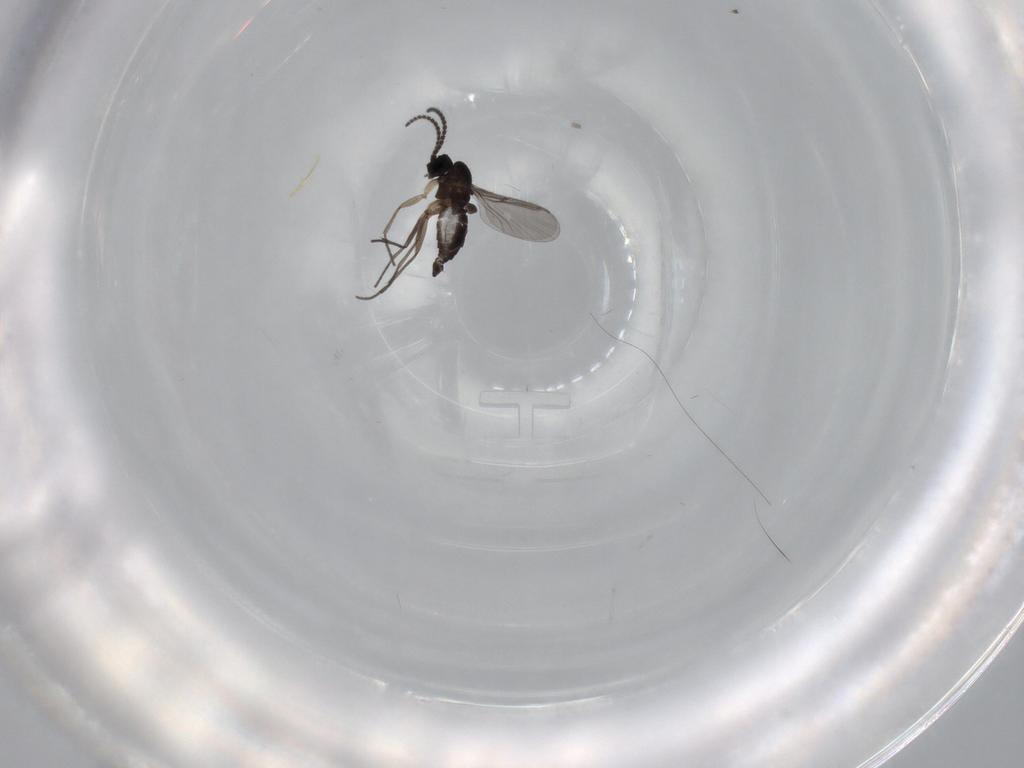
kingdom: Animalia
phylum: Arthropoda
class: Insecta
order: Diptera
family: Sciaridae
